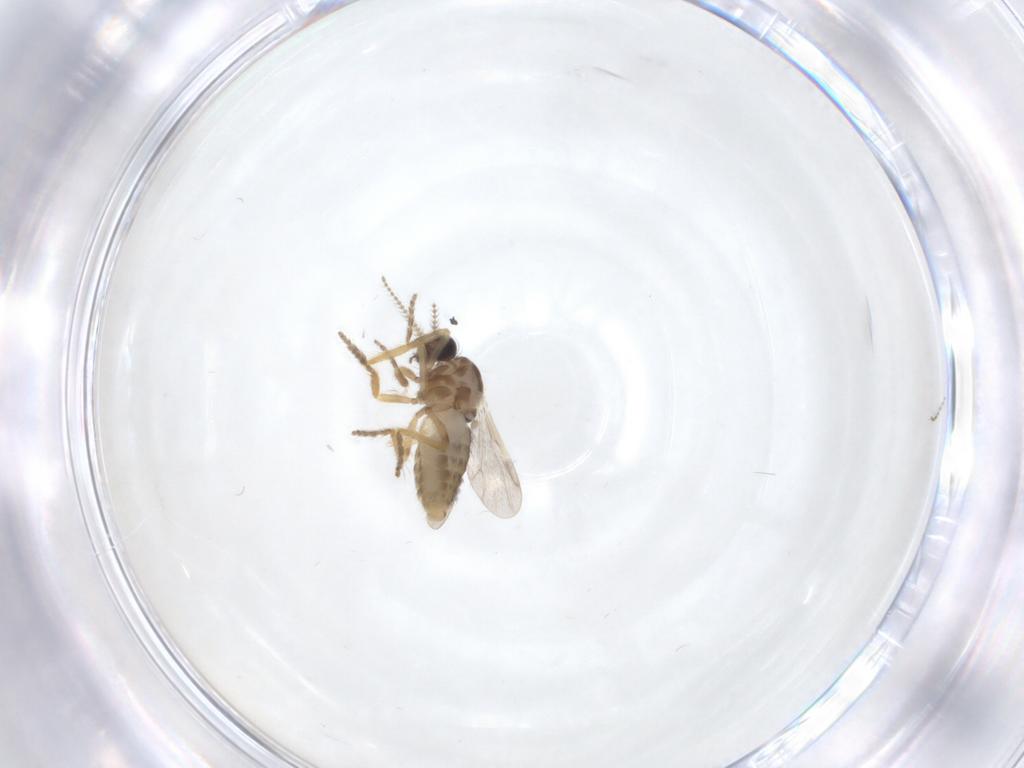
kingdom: Animalia
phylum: Arthropoda
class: Insecta
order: Diptera
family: Ceratopogonidae
